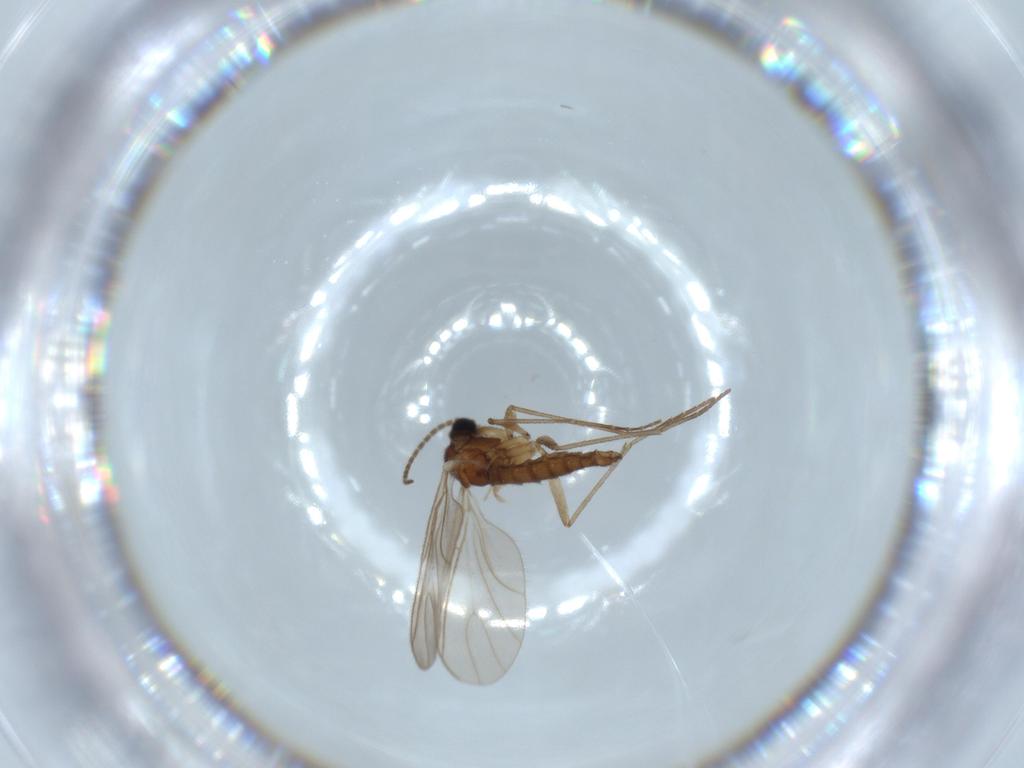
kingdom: Animalia
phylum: Arthropoda
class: Insecta
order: Diptera
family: Sciaridae
